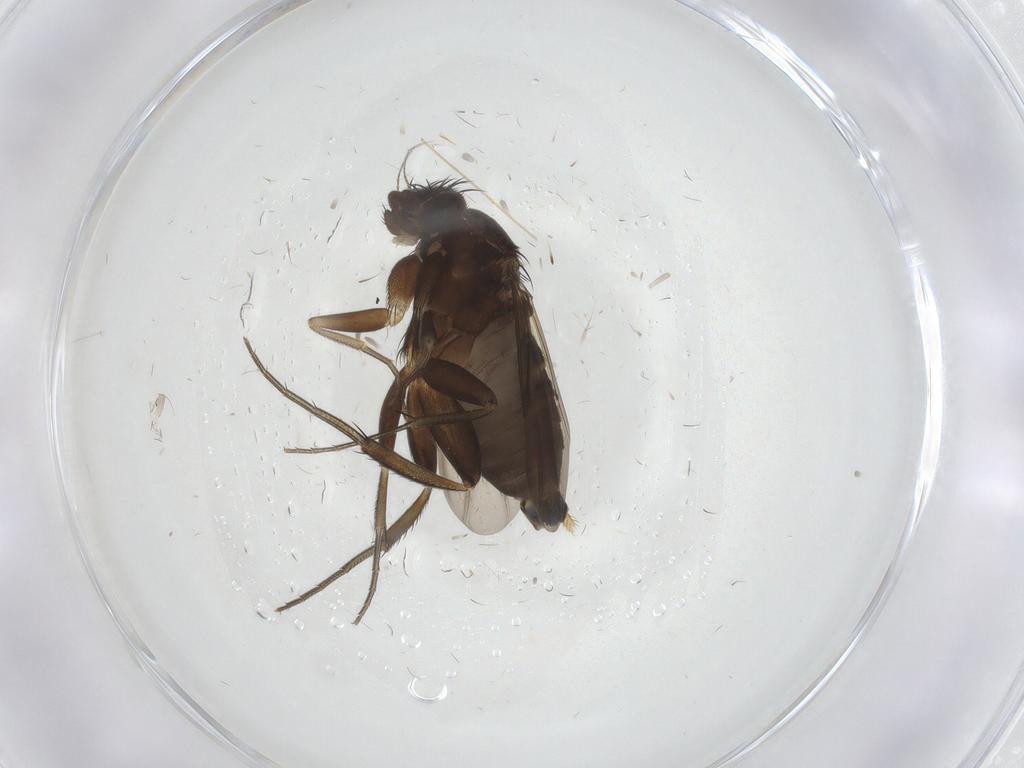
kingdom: Animalia
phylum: Arthropoda
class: Insecta
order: Diptera
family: Phoridae
